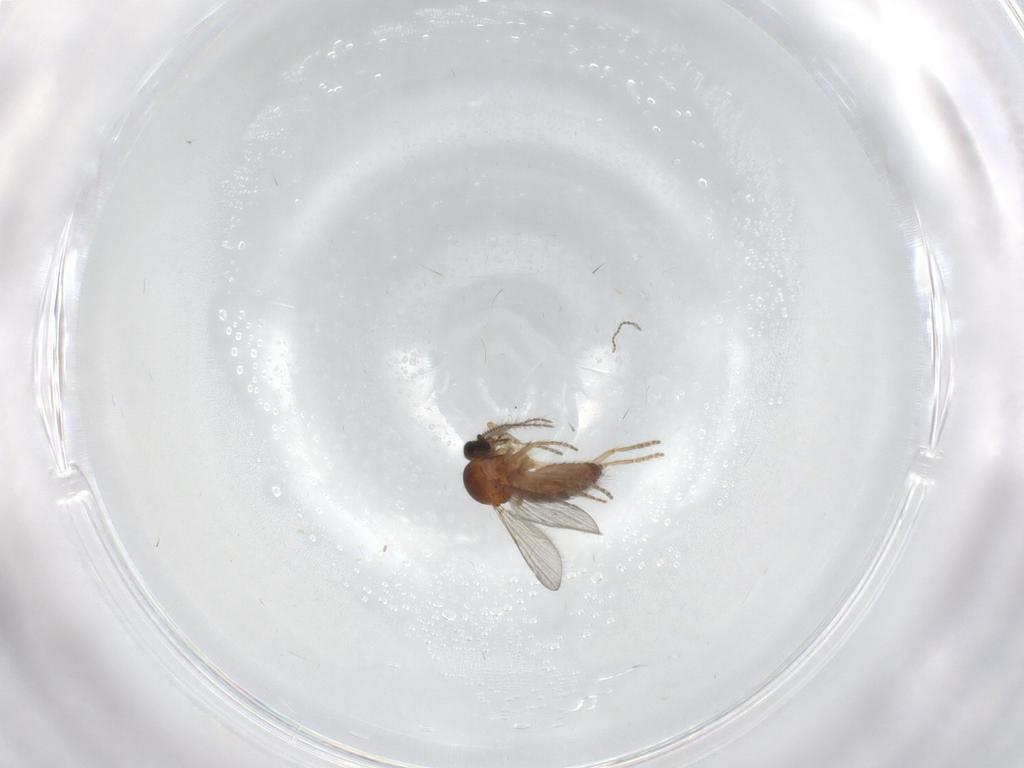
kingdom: Animalia
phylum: Arthropoda
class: Insecta
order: Diptera
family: Ceratopogonidae
